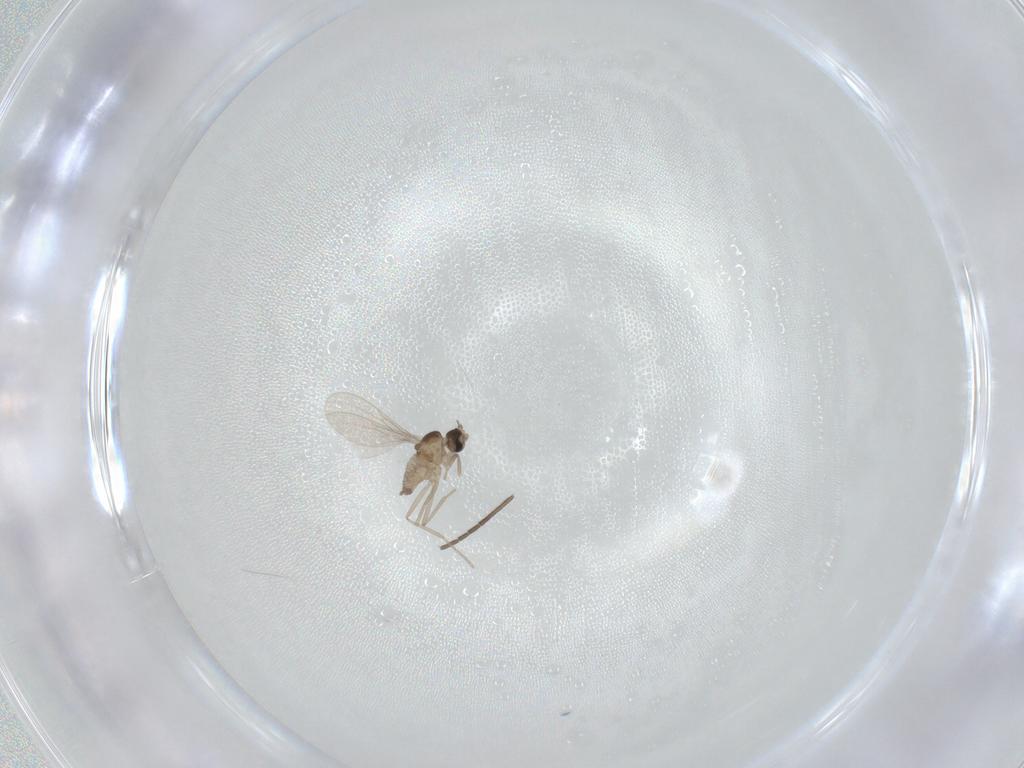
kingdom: Animalia
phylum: Arthropoda
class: Insecta
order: Diptera
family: Sciaridae
